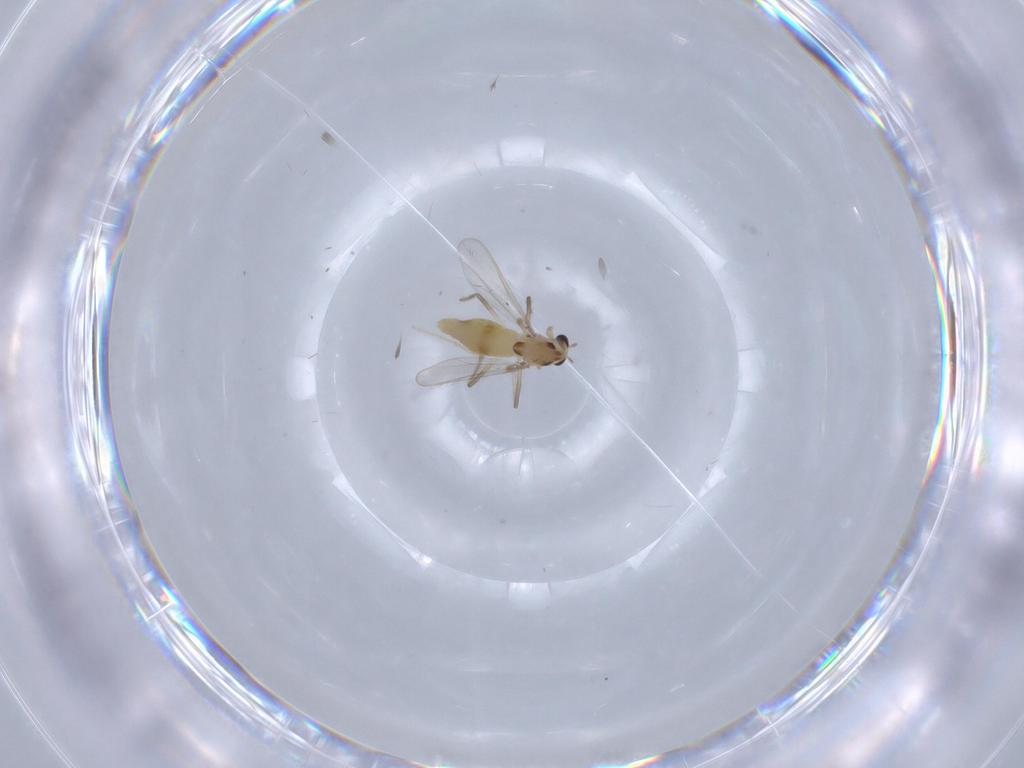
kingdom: Animalia
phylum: Arthropoda
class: Insecta
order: Diptera
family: Chironomidae
